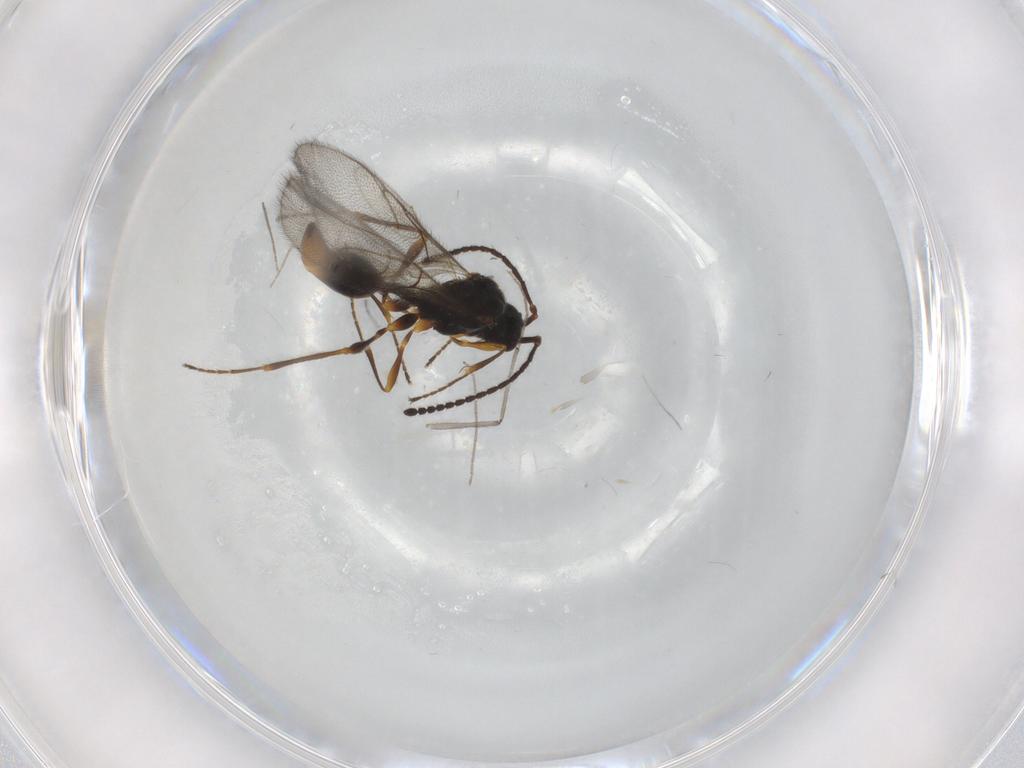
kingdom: Animalia
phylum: Arthropoda
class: Insecta
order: Hymenoptera
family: Diapriidae
